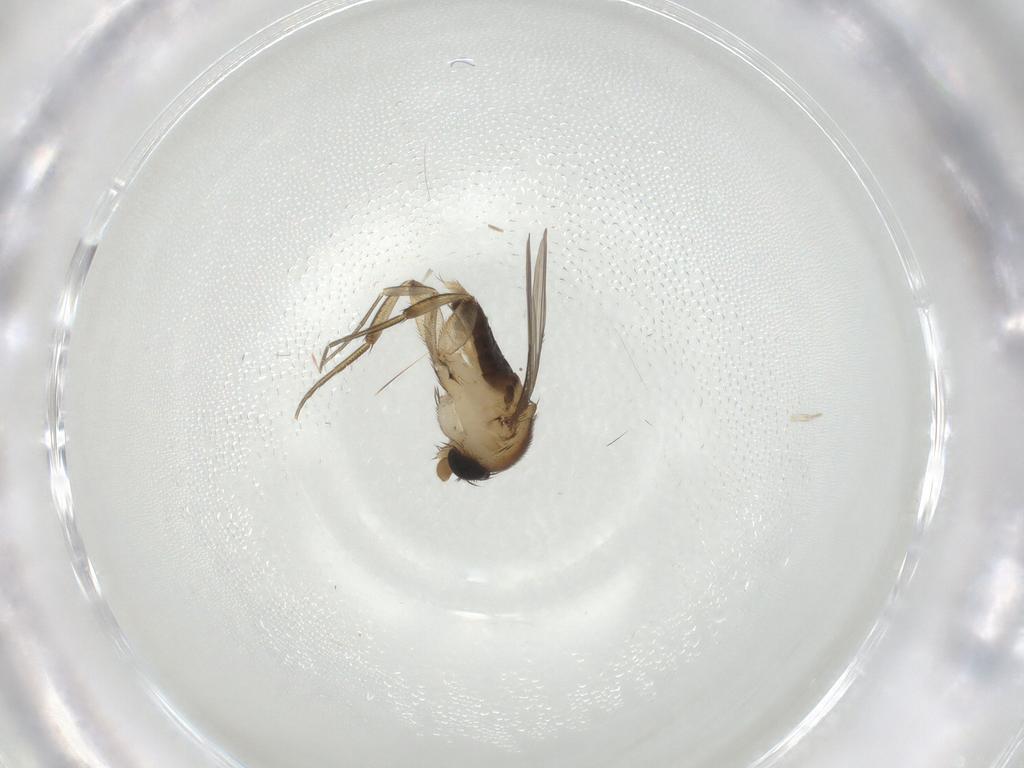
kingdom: Animalia
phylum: Arthropoda
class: Insecta
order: Diptera
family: Phoridae
